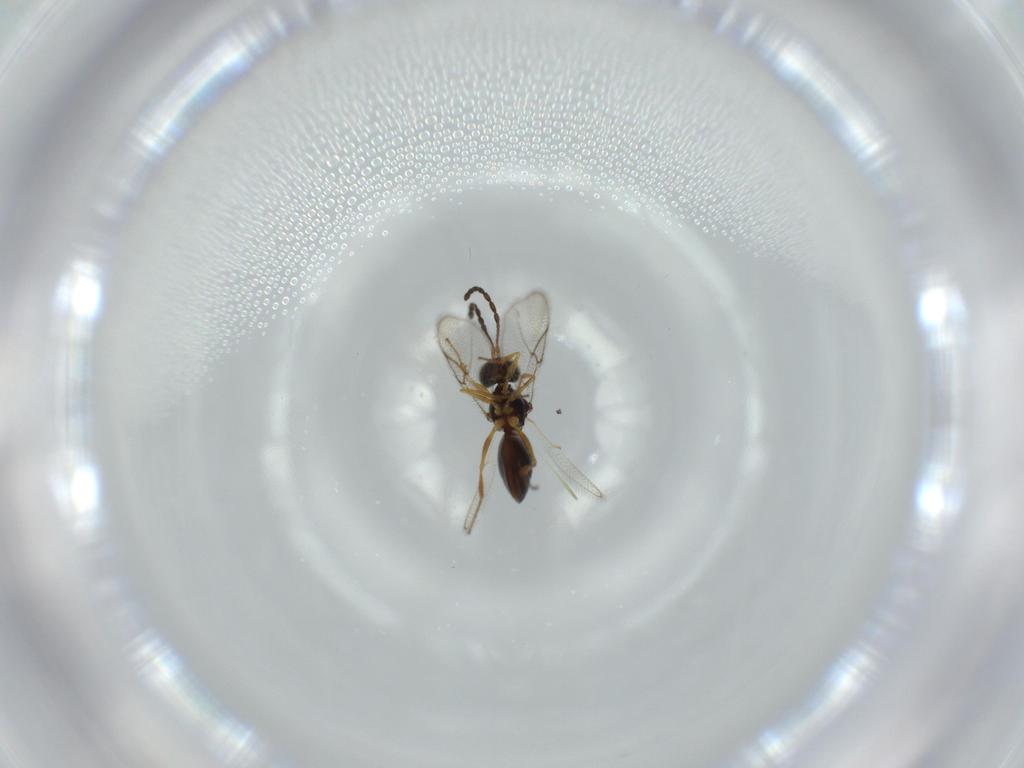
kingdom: Animalia
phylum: Arthropoda
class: Insecta
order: Hymenoptera
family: Figitidae
